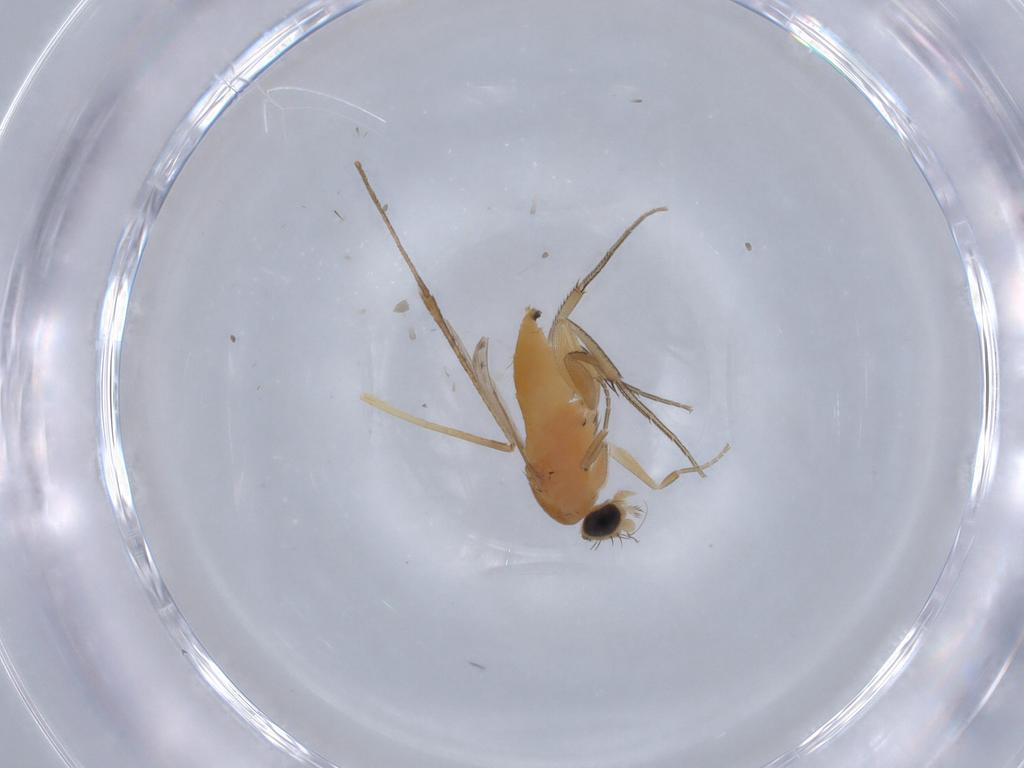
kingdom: Animalia
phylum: Arthropoda
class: Insecta
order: Diptera
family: Cecidomyiidae
